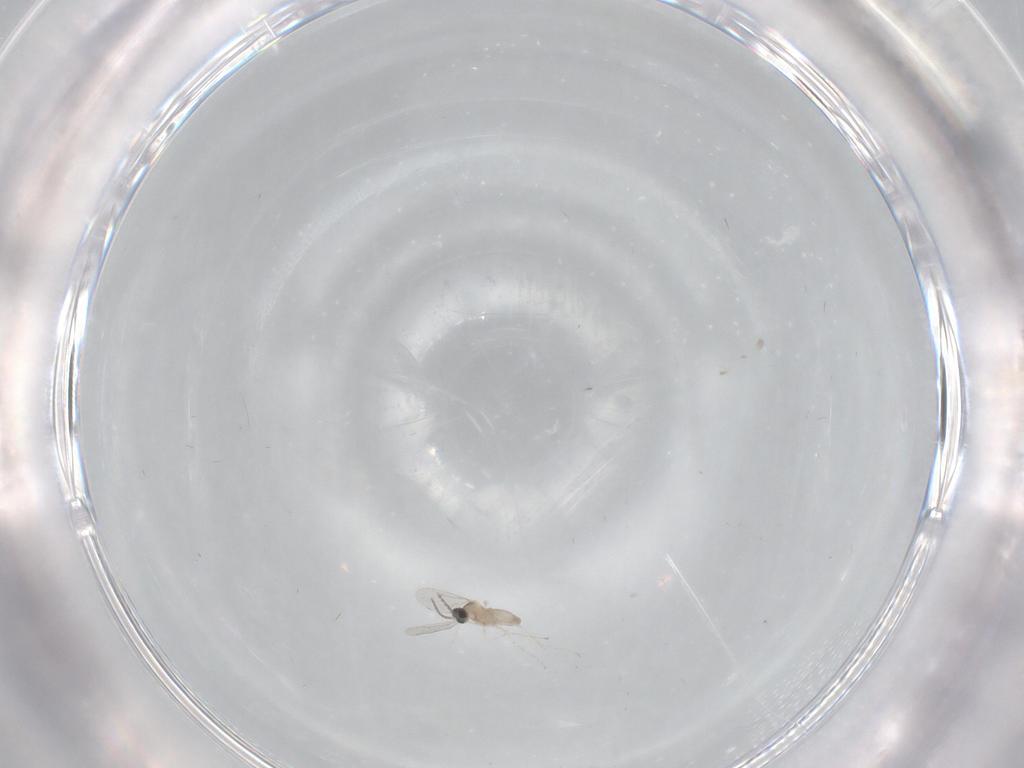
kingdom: Animalia
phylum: Arthropoda
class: Insecta
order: Diptera
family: Cecidomyiidae
